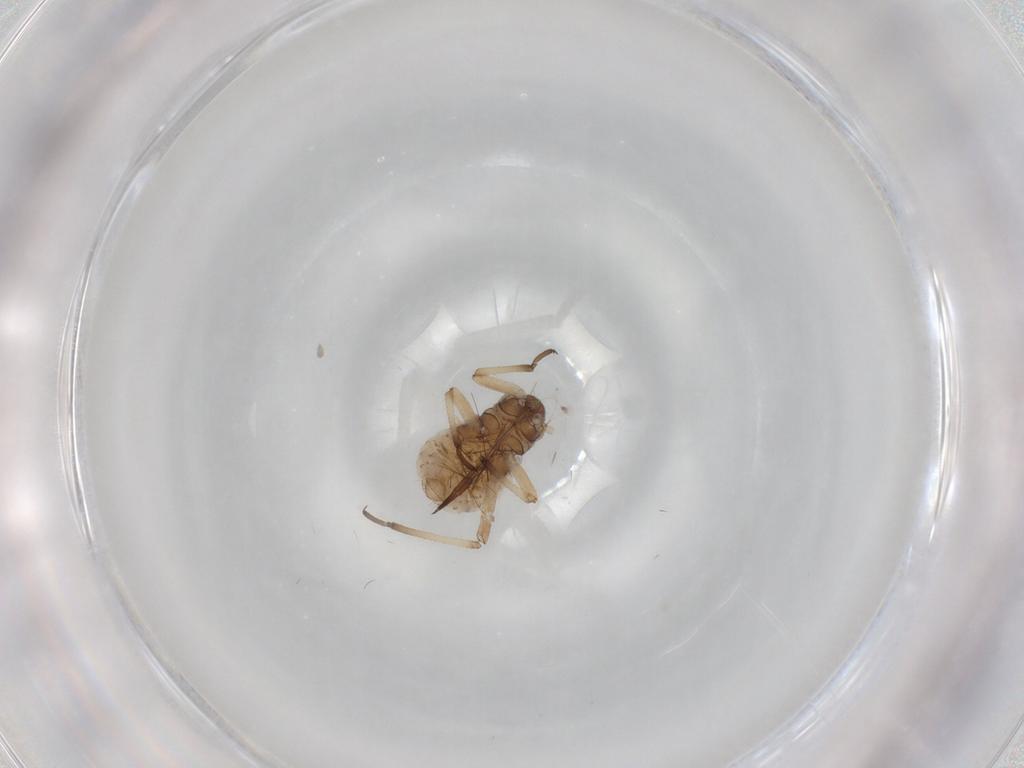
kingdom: Animalia
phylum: Arthropoda
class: Insecta
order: Hemiptera
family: Aphididae
